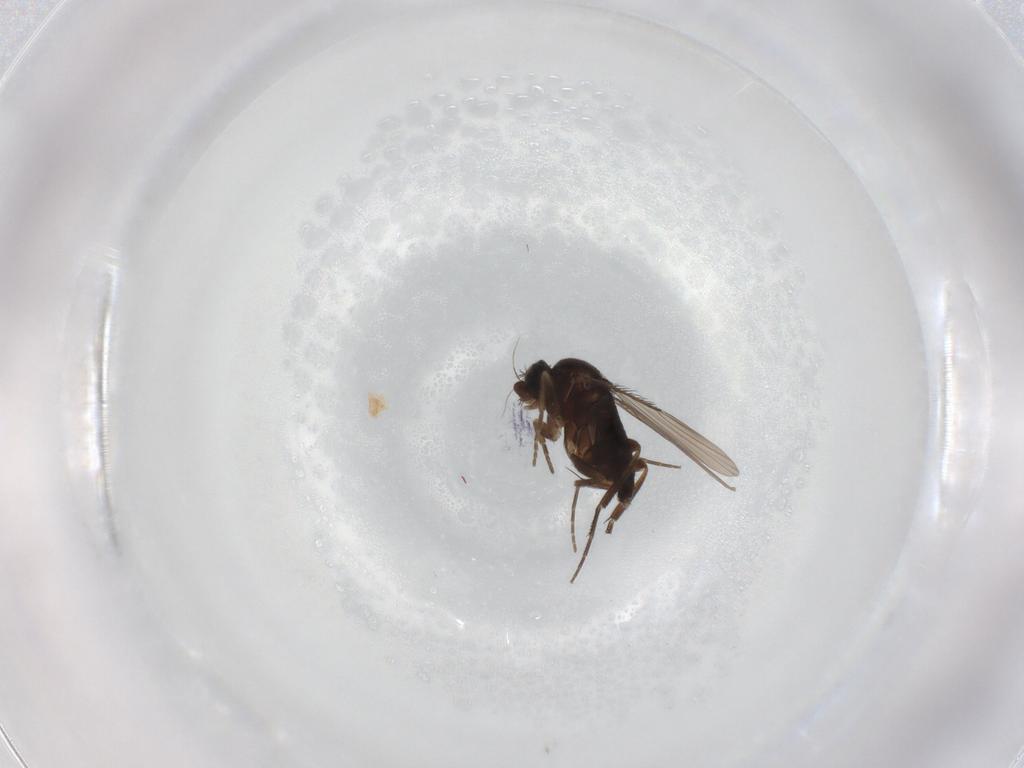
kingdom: Animalia
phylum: Arthropoda
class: Insecta
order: Diptera
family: Phoridae
